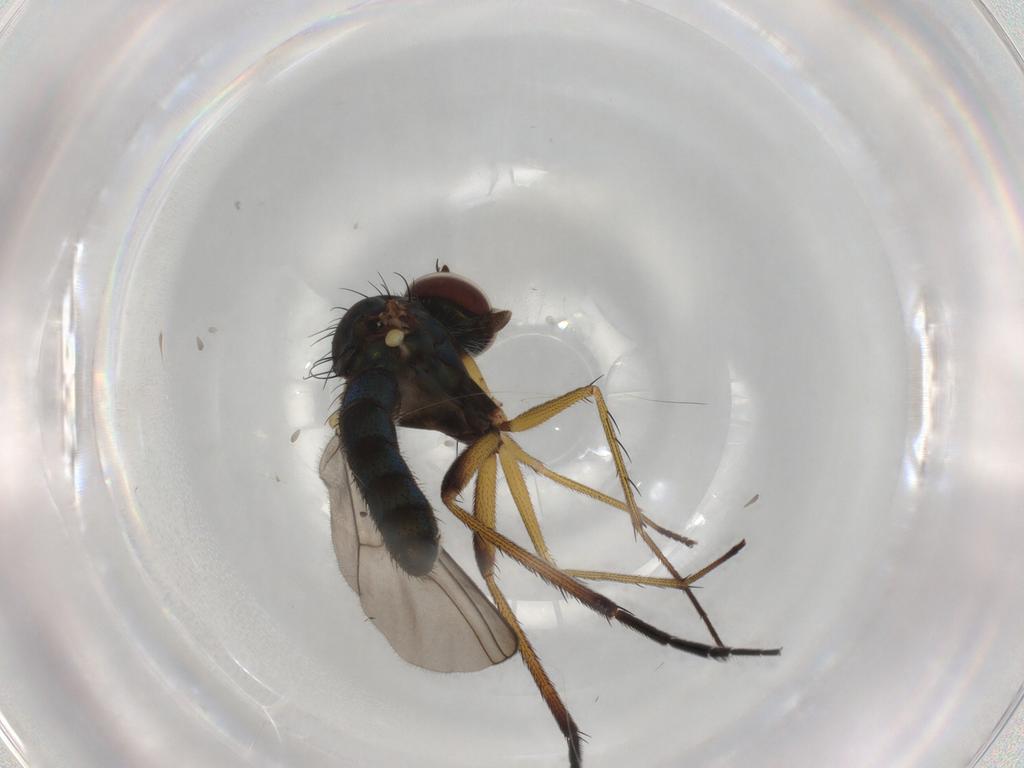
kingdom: Animalia
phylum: Arthropoda
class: Insecta
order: Diptera
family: Dolichopodidae
